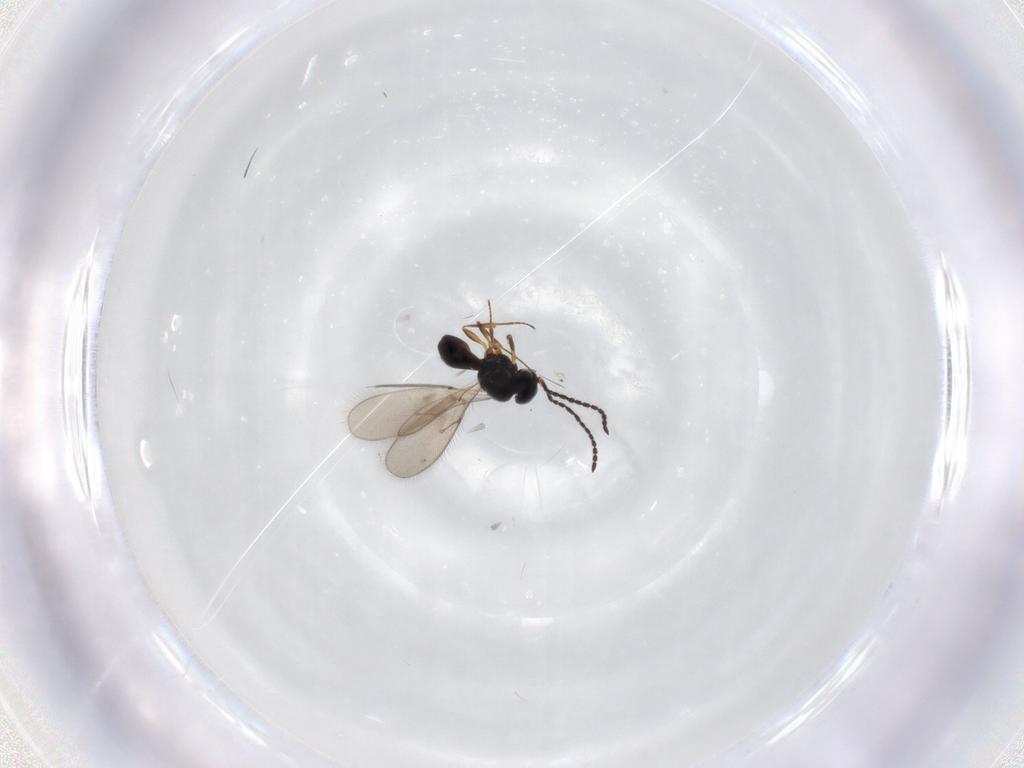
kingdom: Animalia
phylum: Arthropoda
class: Insecta
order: Hymenoptera
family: Scelionidae
